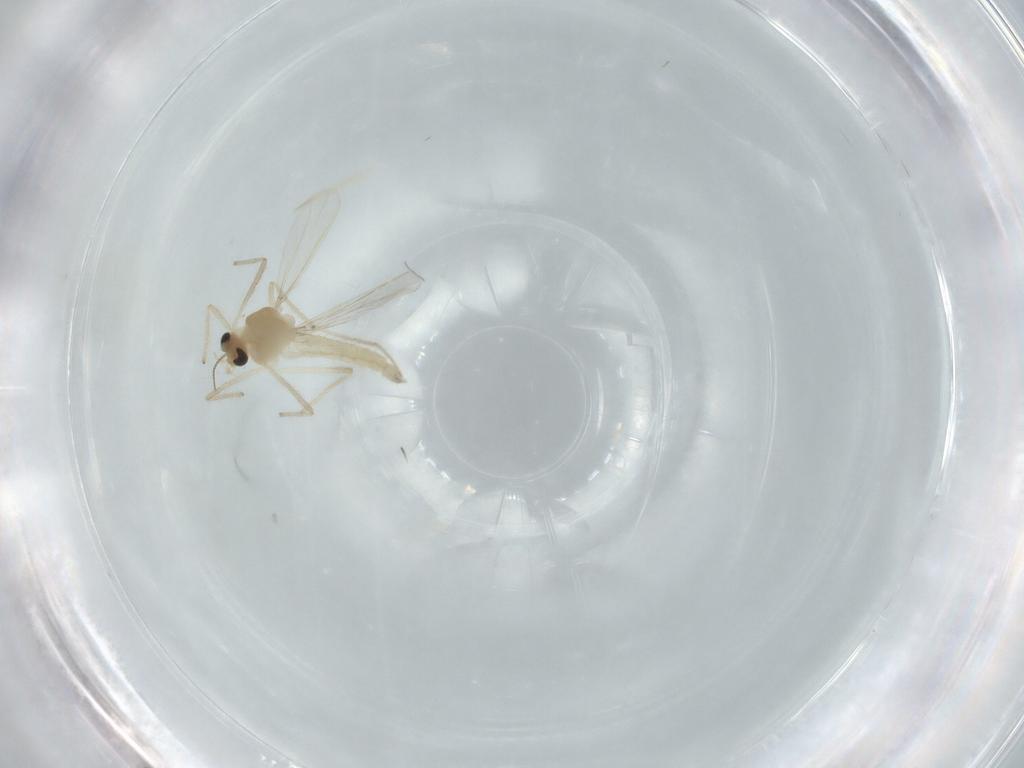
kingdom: Animalia
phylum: Arthropoda
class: Insecta
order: Diptera
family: Chironomidae
